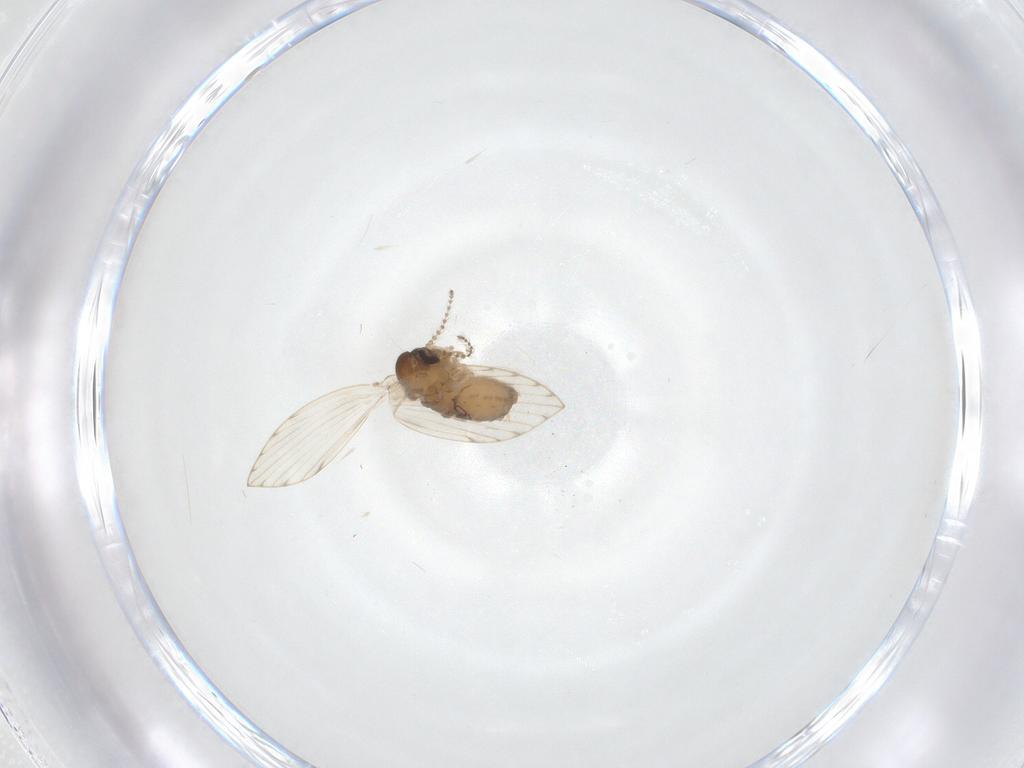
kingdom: Animalia
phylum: Arthropoda
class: Insecta
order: Diptera
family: Psychodidae
